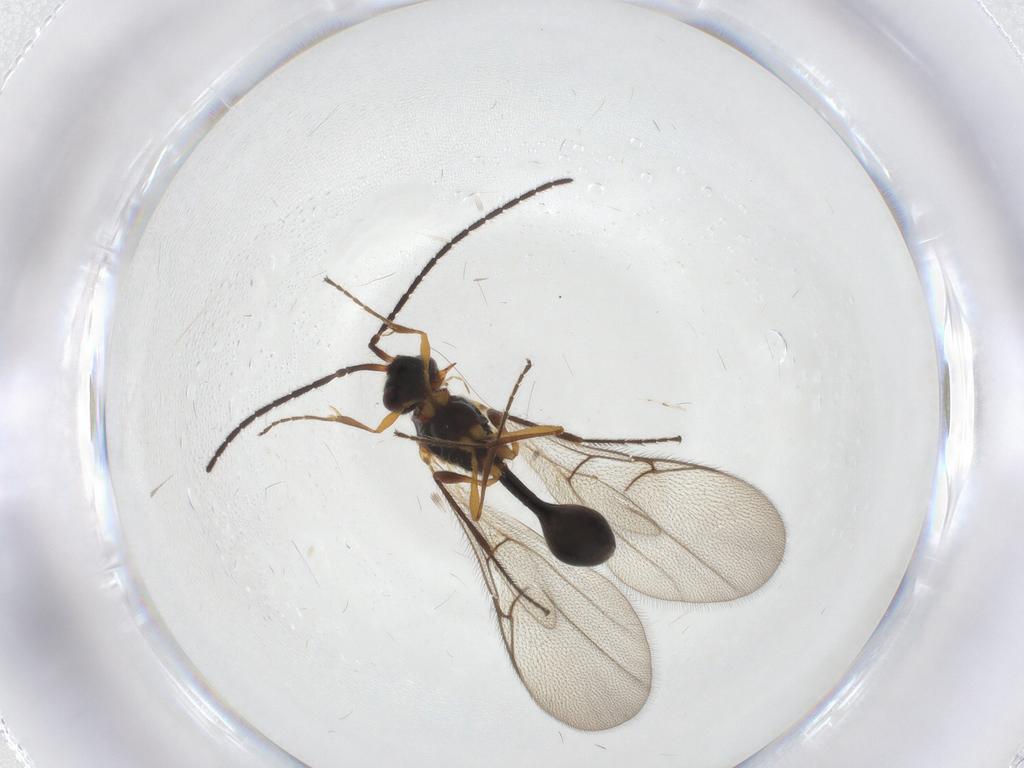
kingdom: Animalia
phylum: Arthropoda
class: Insecta
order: Hymenoptera
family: Diapriidae
